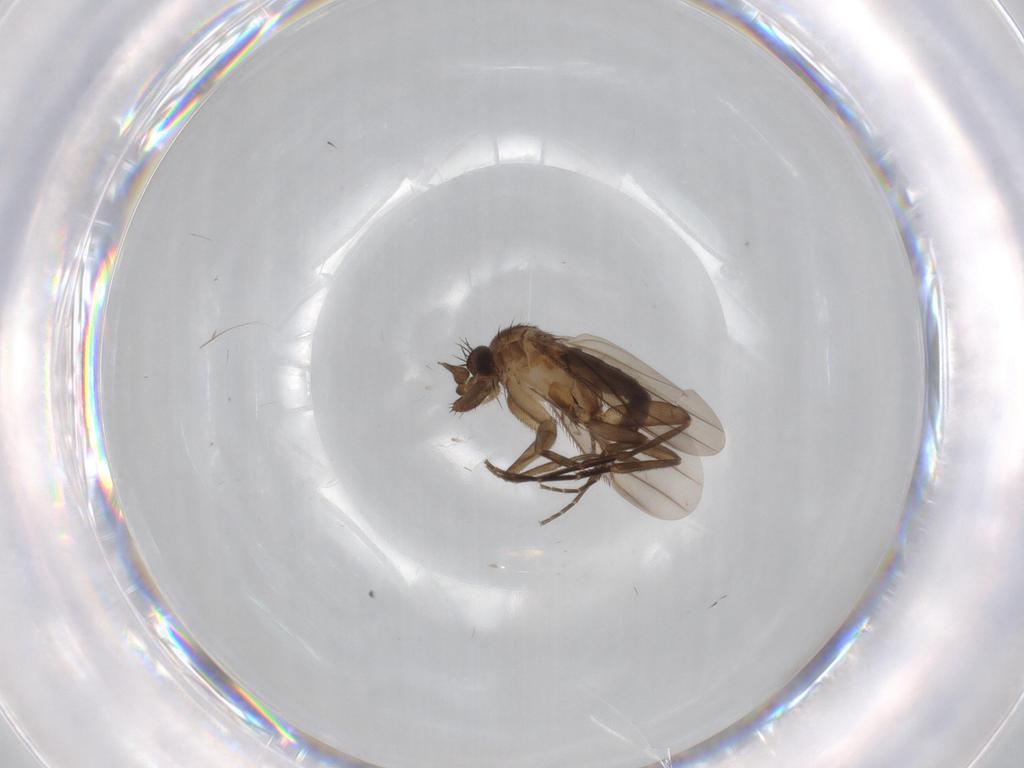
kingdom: Animalia
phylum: Arthropoda
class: Insecta
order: Diptera
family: Phoridae
